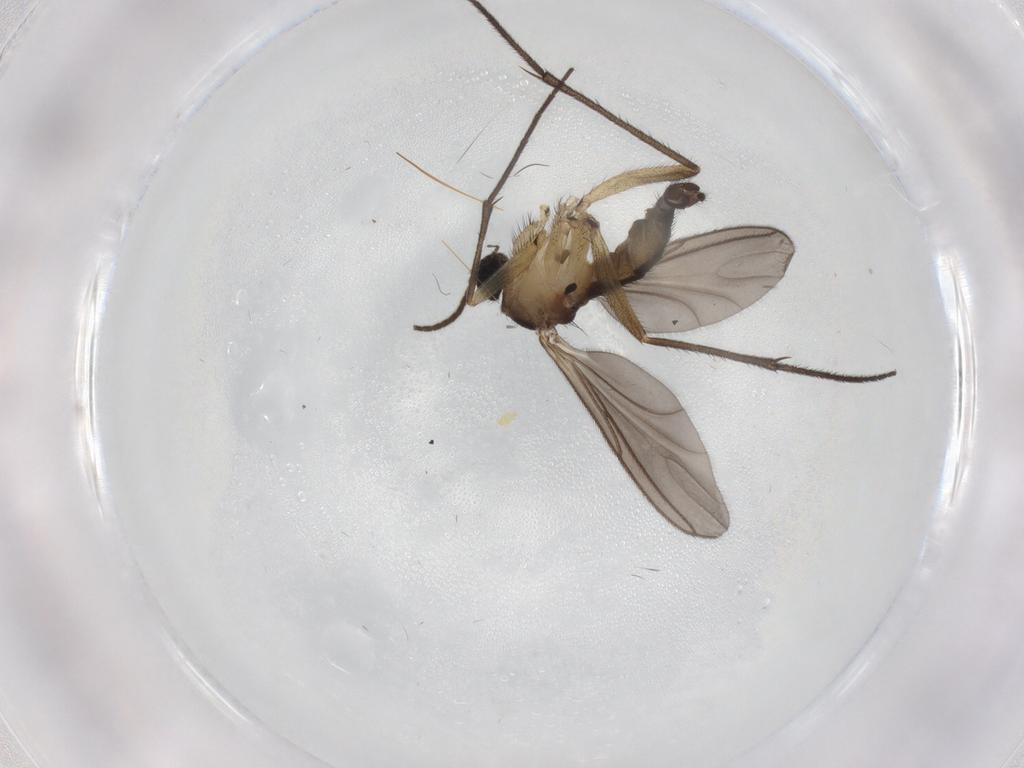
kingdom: Animalia
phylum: Arthropoda
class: Insecta
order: Diptera
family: Sciaridae
